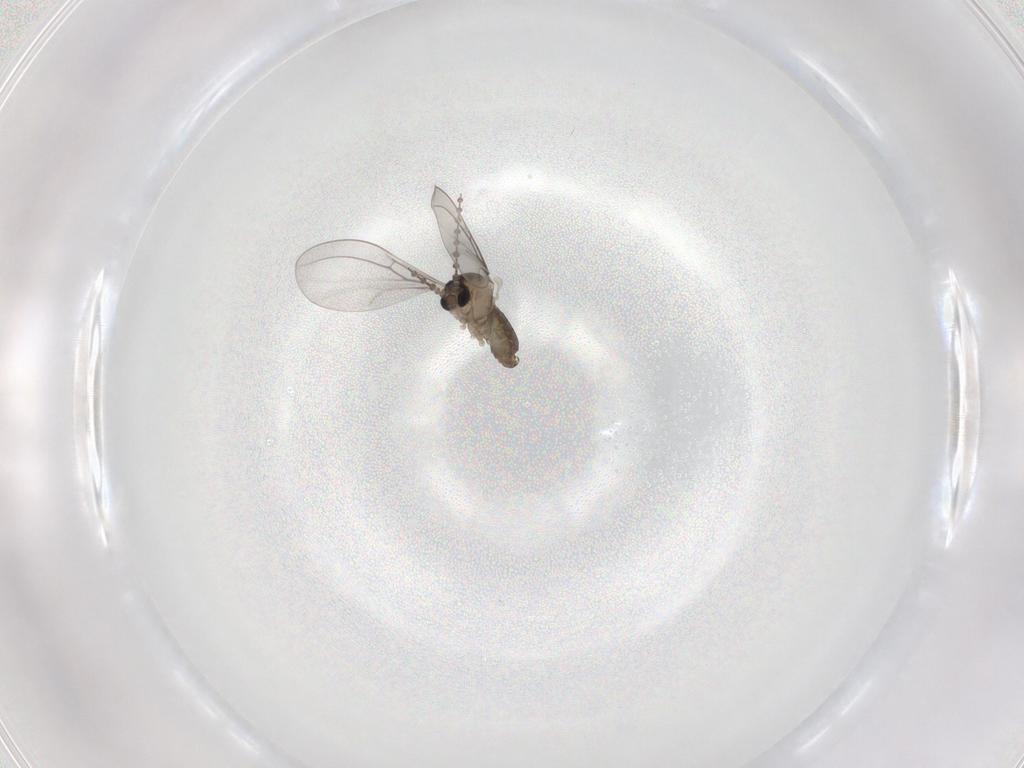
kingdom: Animalia
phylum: Arthropoda
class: Insecta
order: Diptera
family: Cecidomyiidae
